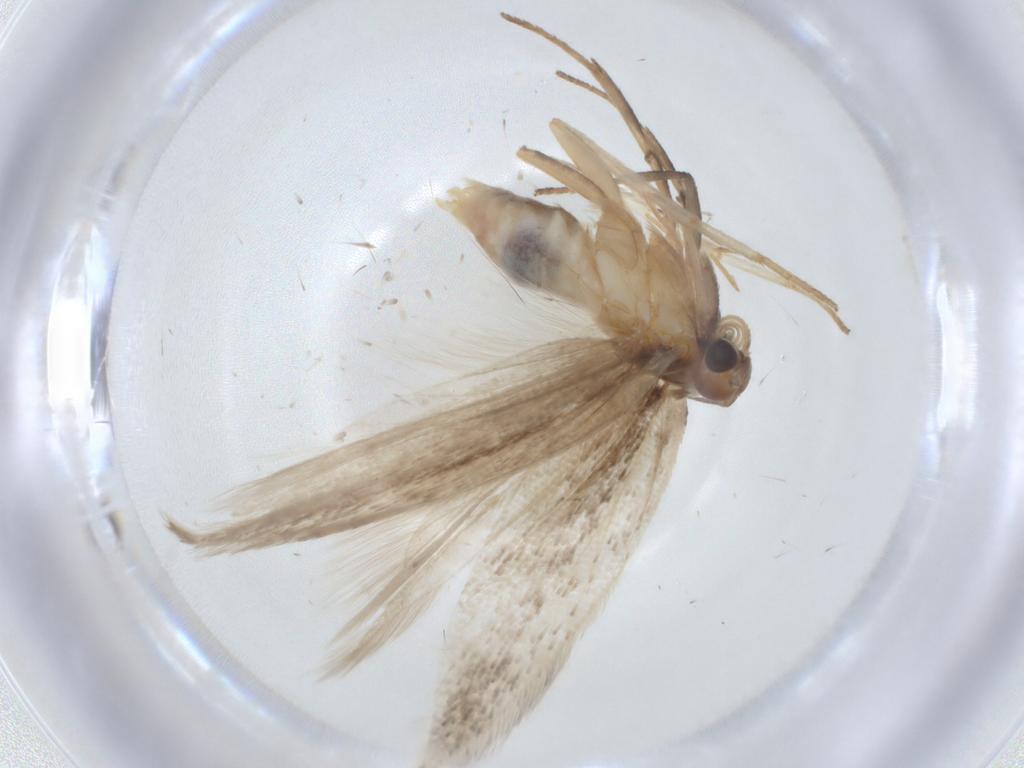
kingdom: Animalia
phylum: Arthropoda
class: Insecta
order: Lepidoptera
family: Gelechiidae
